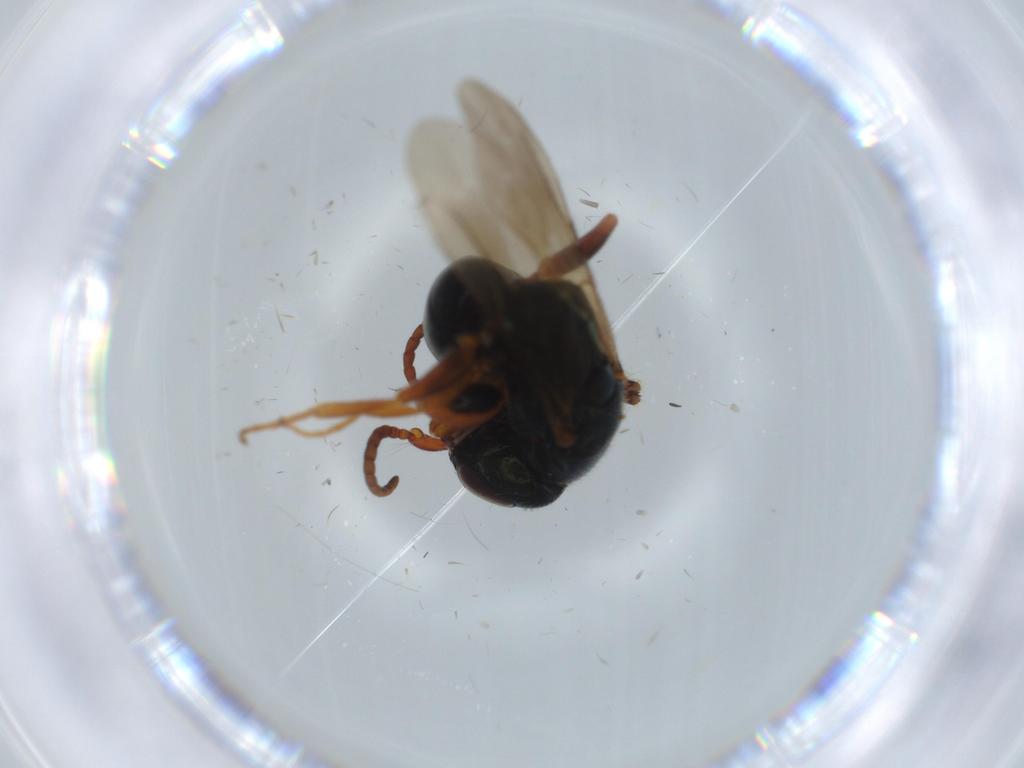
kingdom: Animalia
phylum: Arthropoda
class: Insecta
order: Hymenoptera
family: Bethylidae
